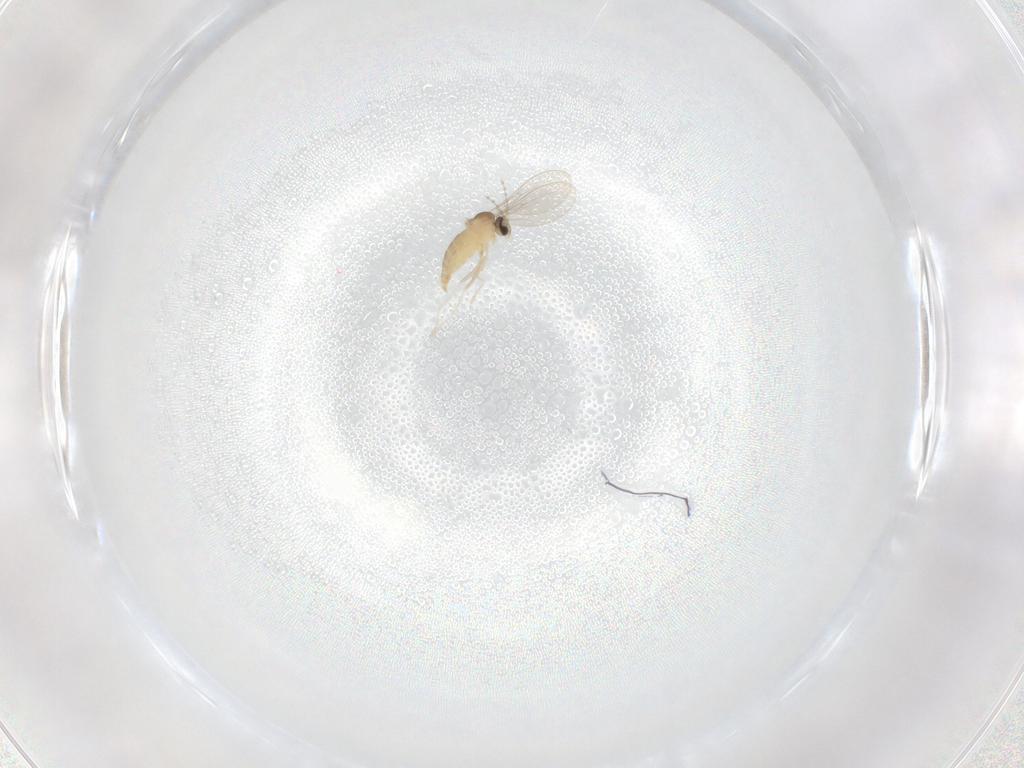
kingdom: Animalia
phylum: Arthropoda
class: Insecta
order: Diptera
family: Cecidomyiidae
